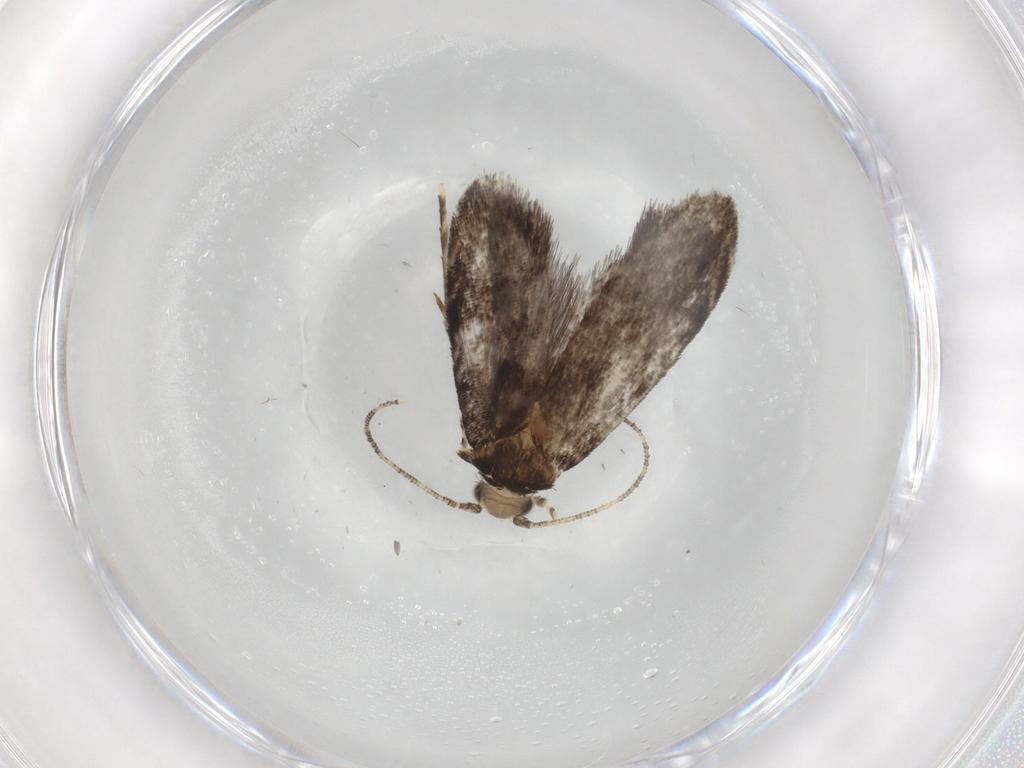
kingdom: Animalia
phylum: Arthropoda
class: Insecta
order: Lepidoptera
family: Tineidae
